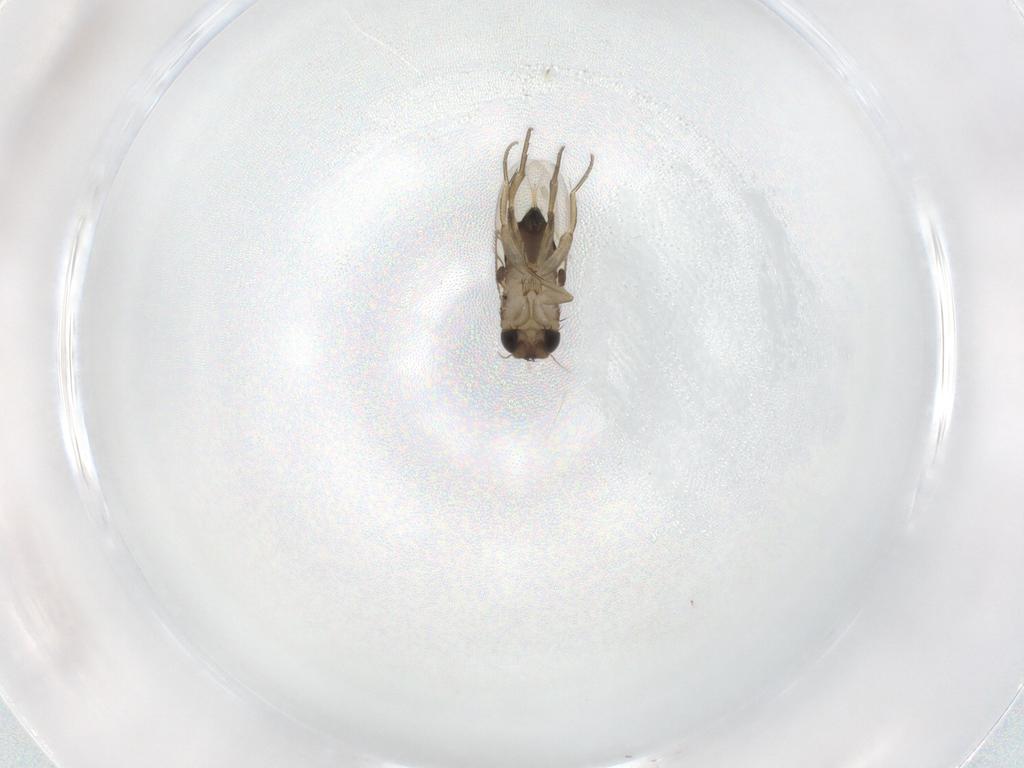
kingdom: Animalia
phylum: Arthropoda
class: Insecta
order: Diptera
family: Phoridae
